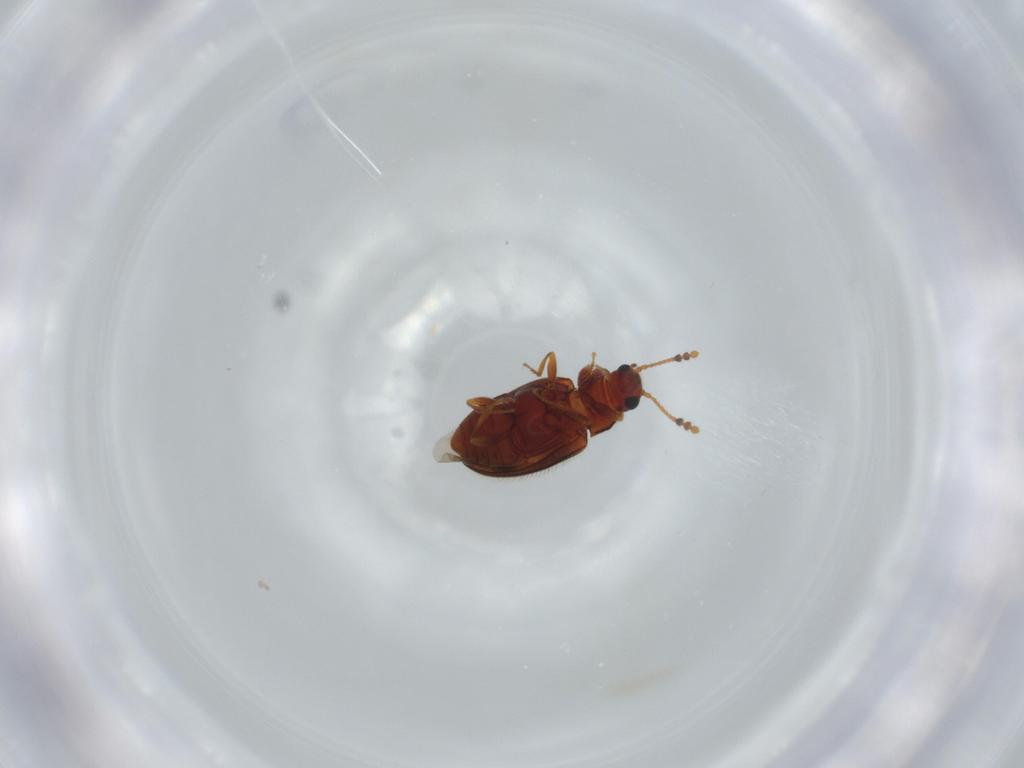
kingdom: Animalia
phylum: Arthropoda
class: Insecta
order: Coleoptera
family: Erotylidae
